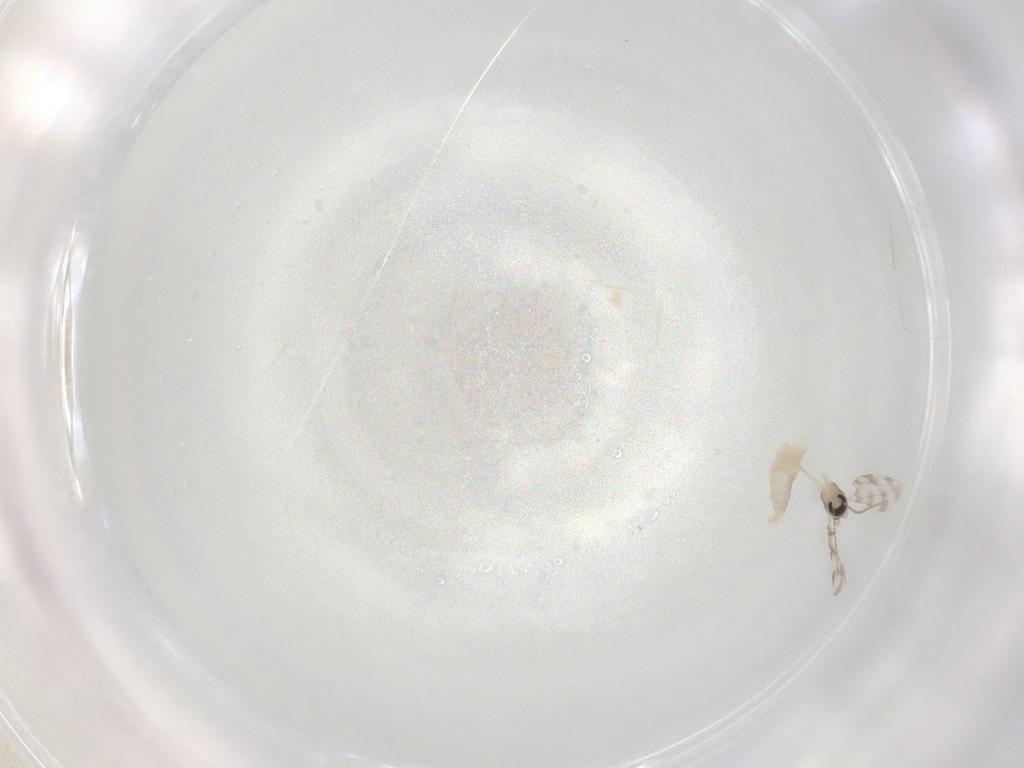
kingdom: Animalia
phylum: Arthropoda
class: Insecta
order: Diptera
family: Cecidomyiidae
